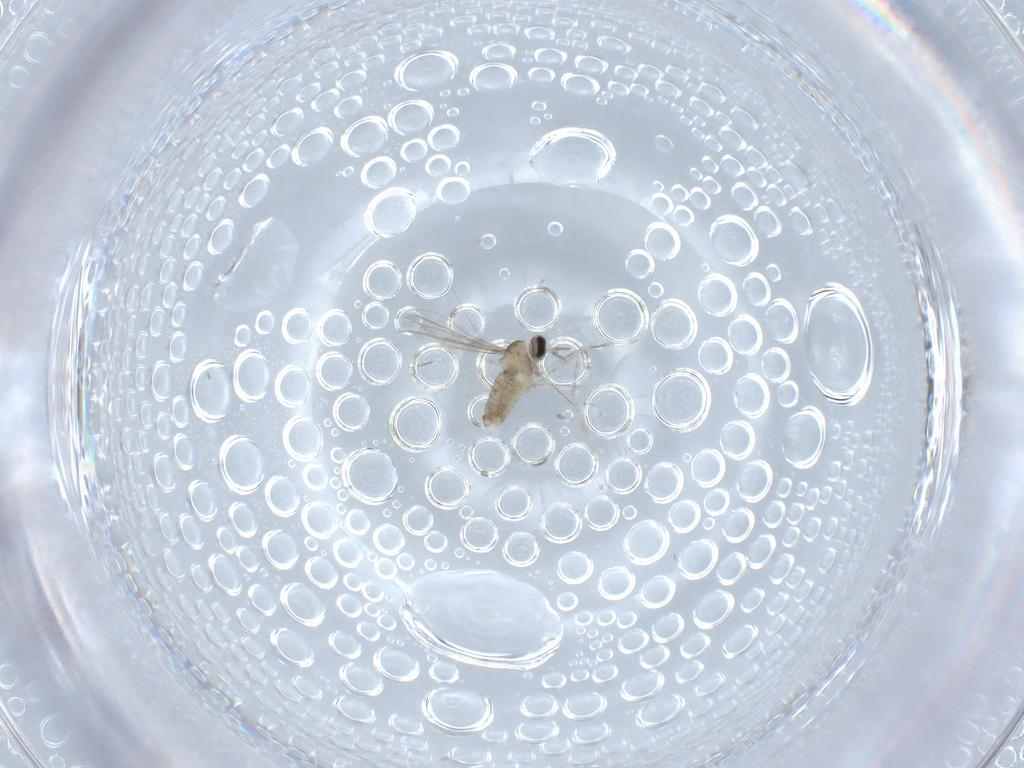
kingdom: Animalia
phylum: Arthropoda
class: Insecta
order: Diptera
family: Cecidomyiidae
